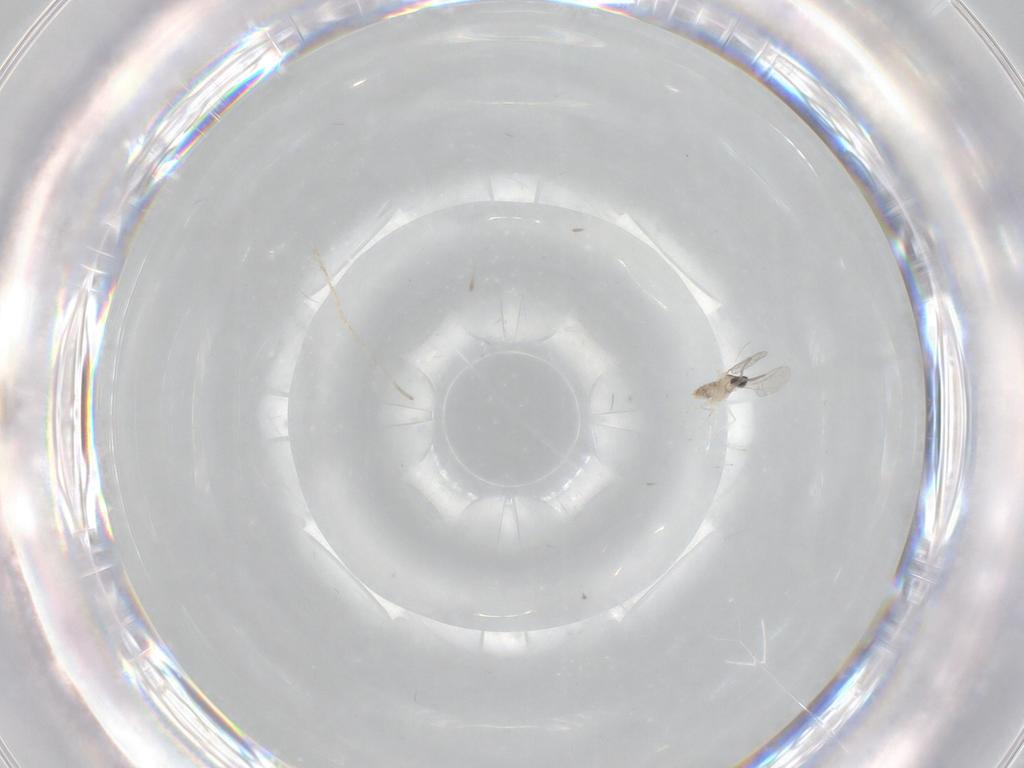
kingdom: Animalia
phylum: Arthropoda
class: Insecta
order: Diptera
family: Cecidomyiidae
